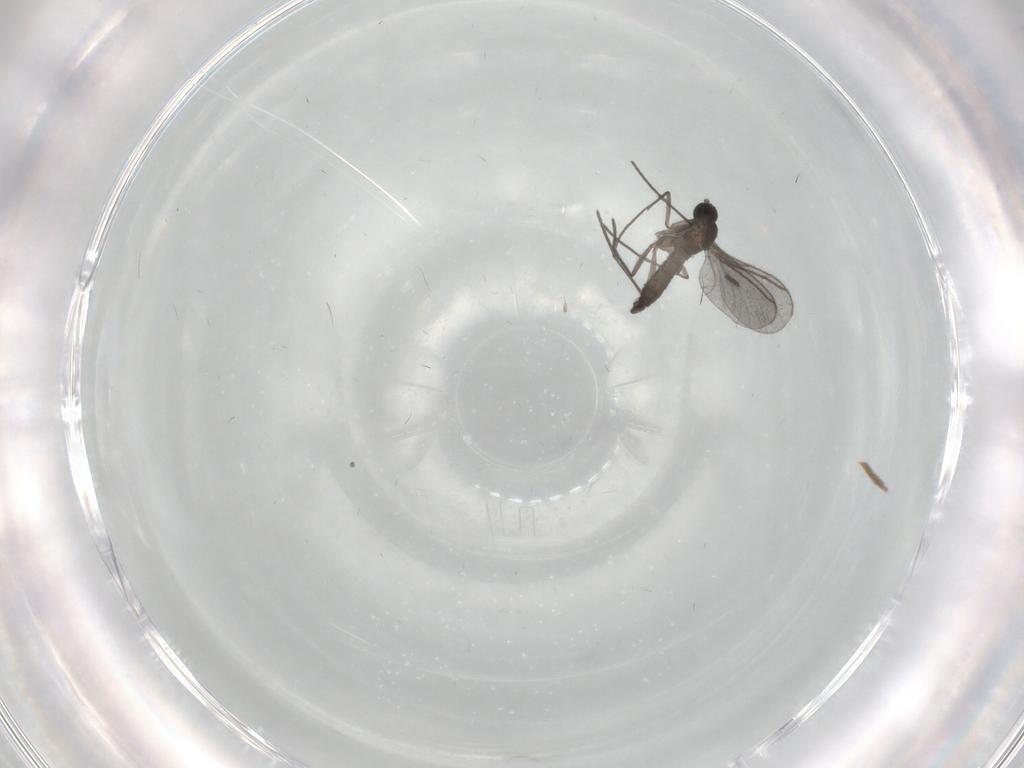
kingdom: Animalia
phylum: Arthropoda
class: Insecta
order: Diptera
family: Sciaridae
